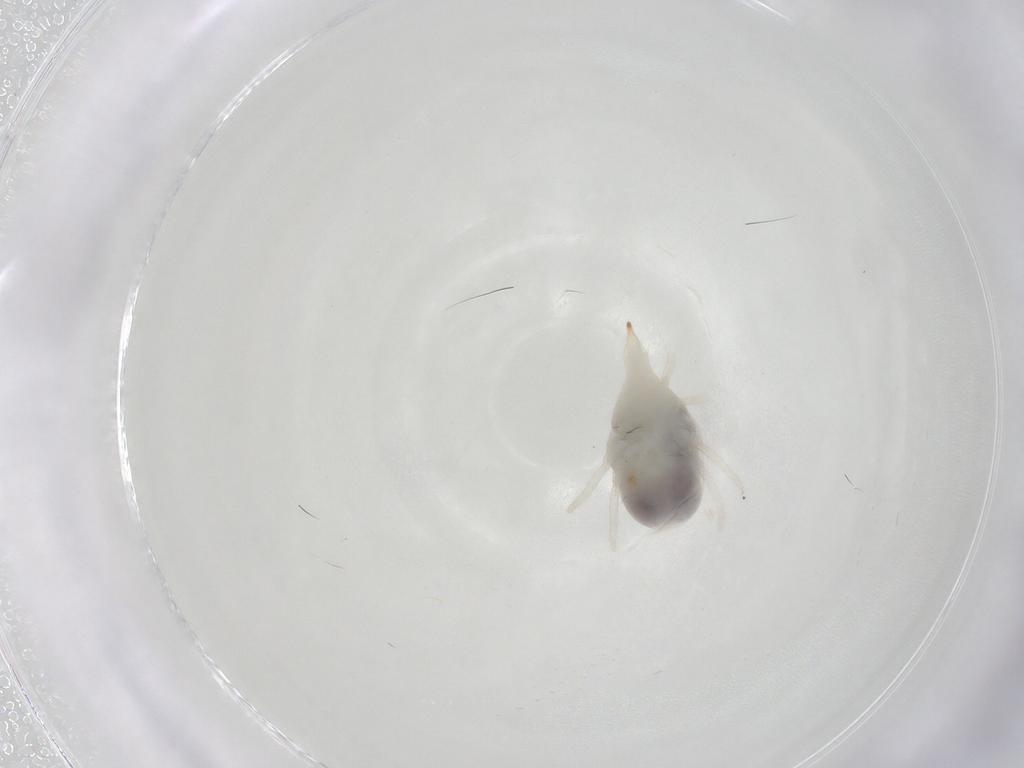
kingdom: Animalia
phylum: Arthropoda
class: Arachnida
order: Trombidiformes
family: Bdellidae
